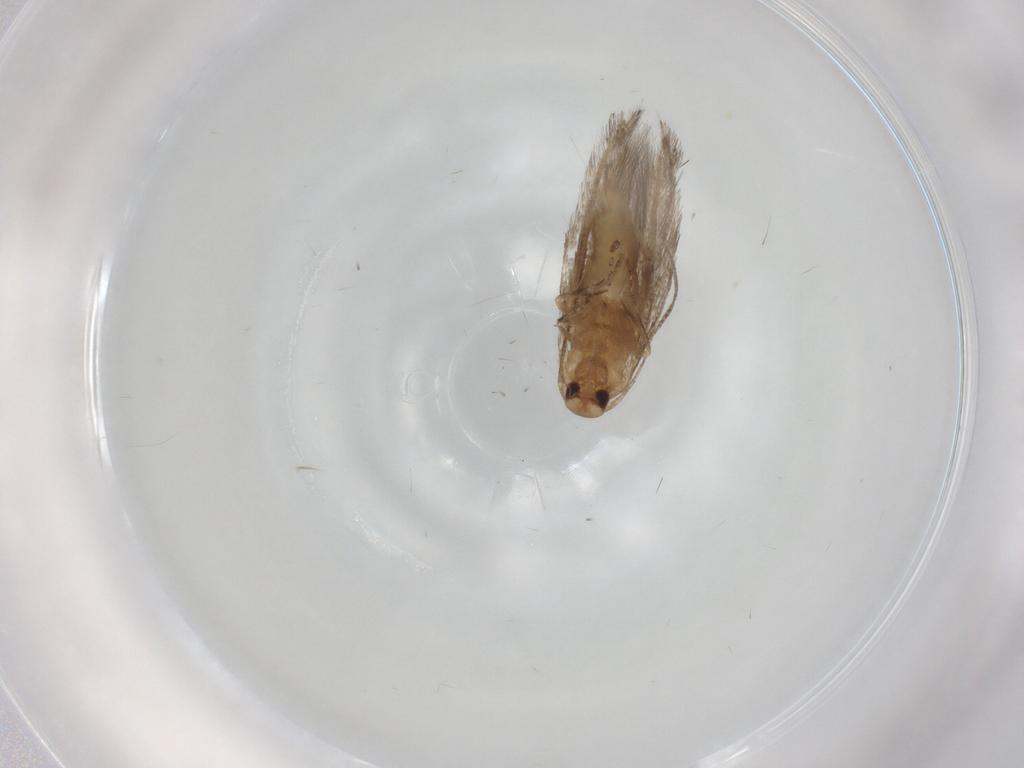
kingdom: Animalia
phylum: Arthropoda
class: Insecta
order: Lepidoptera
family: Elachistidae
